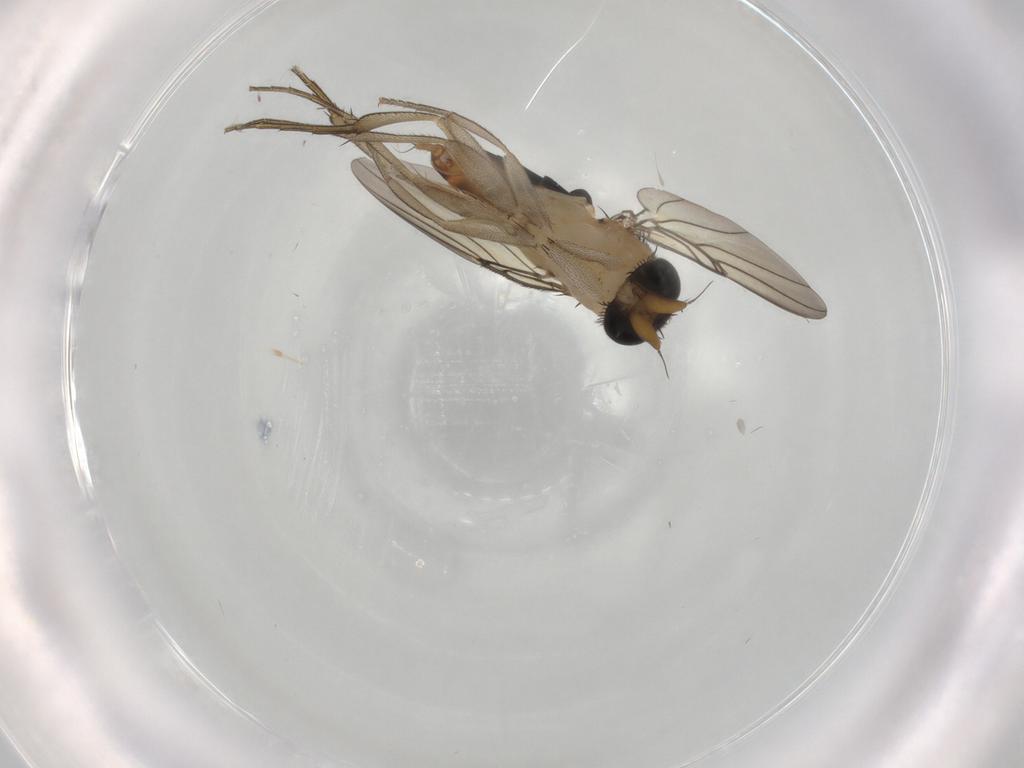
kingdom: Animalia
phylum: Arthropoda
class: Insecta
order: Diptera
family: Phoridae
